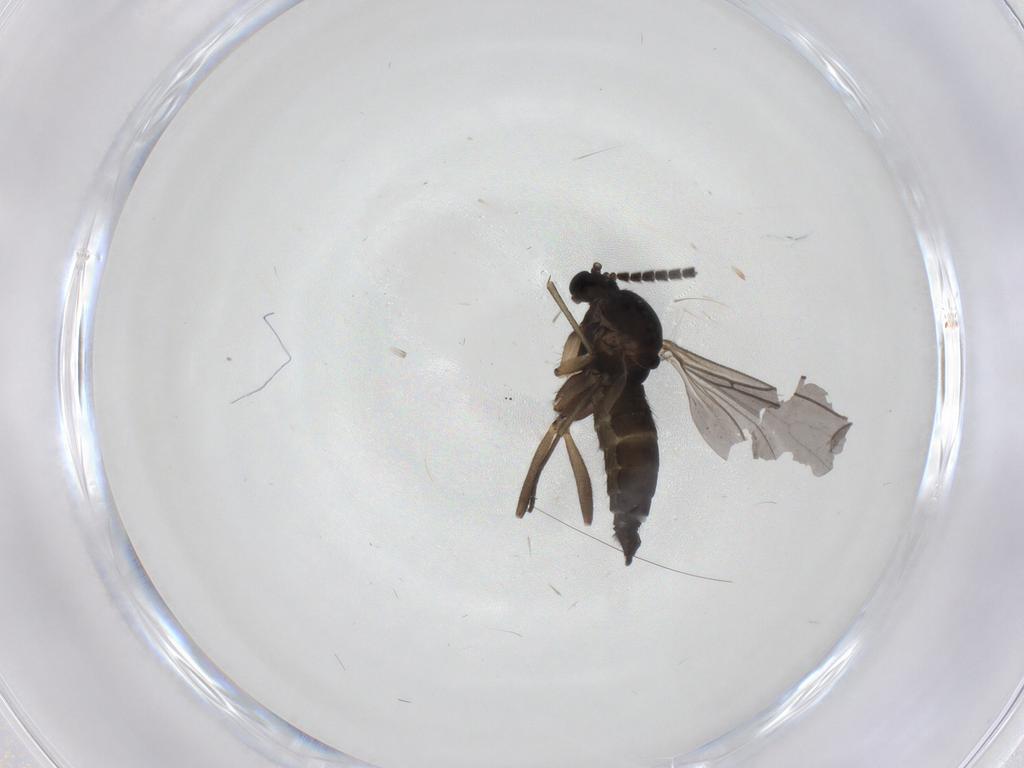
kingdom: Animalia
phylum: Arthropoda
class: Insecta
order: Diptera
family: Sciaridae
